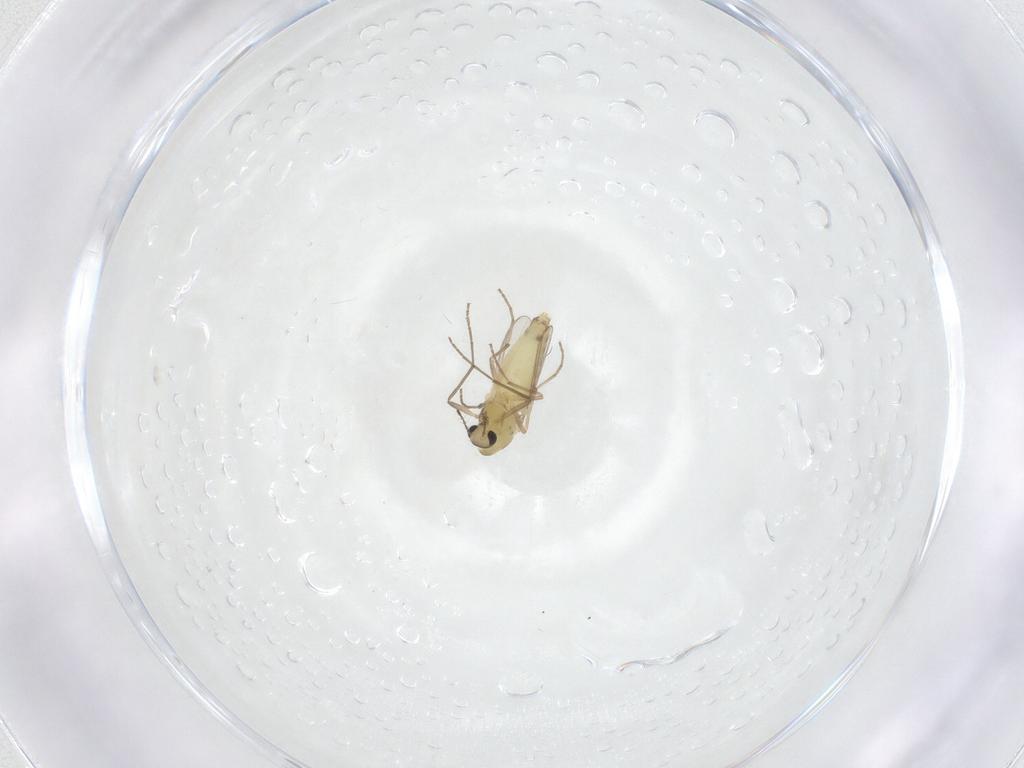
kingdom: Animalia
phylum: Arthropoda
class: Insecta
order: Diptera
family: Chironomidae
